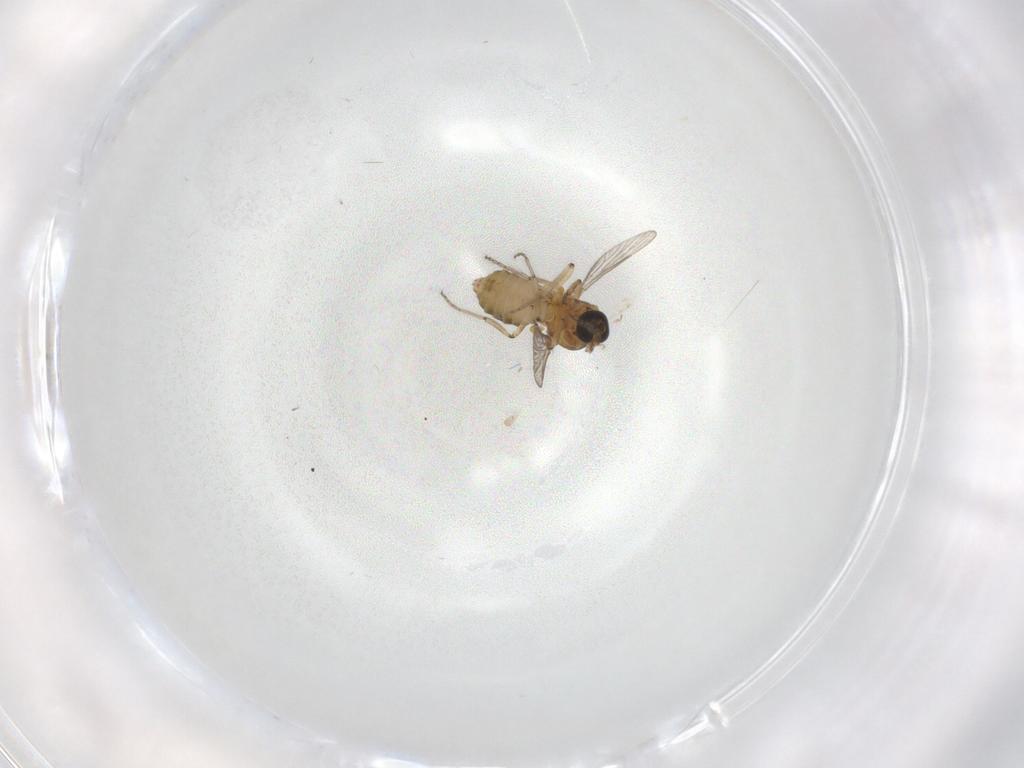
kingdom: Animalia
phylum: Arthropoda
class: Insecta
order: Diptera
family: Ceratopogonidae
